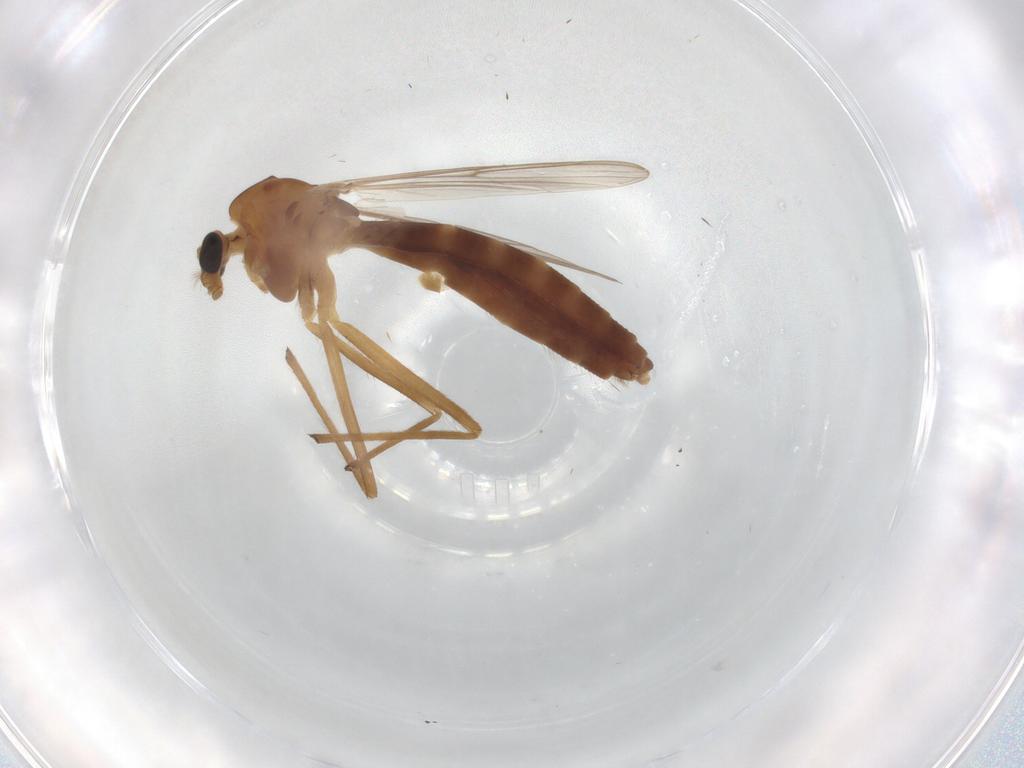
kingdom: Animalia
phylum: Arthropoda
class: Insecta
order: Diptera
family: Chironomidae
